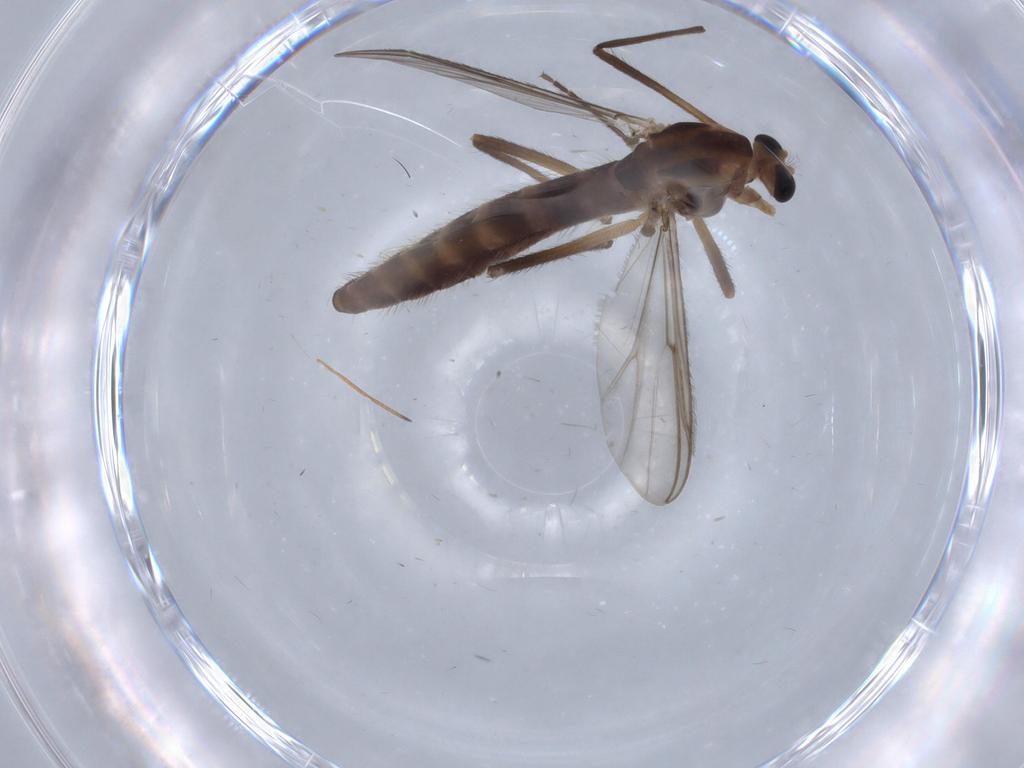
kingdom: Animalia
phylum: Arthropoda
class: Insecta
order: Diptera
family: Chironomidae
